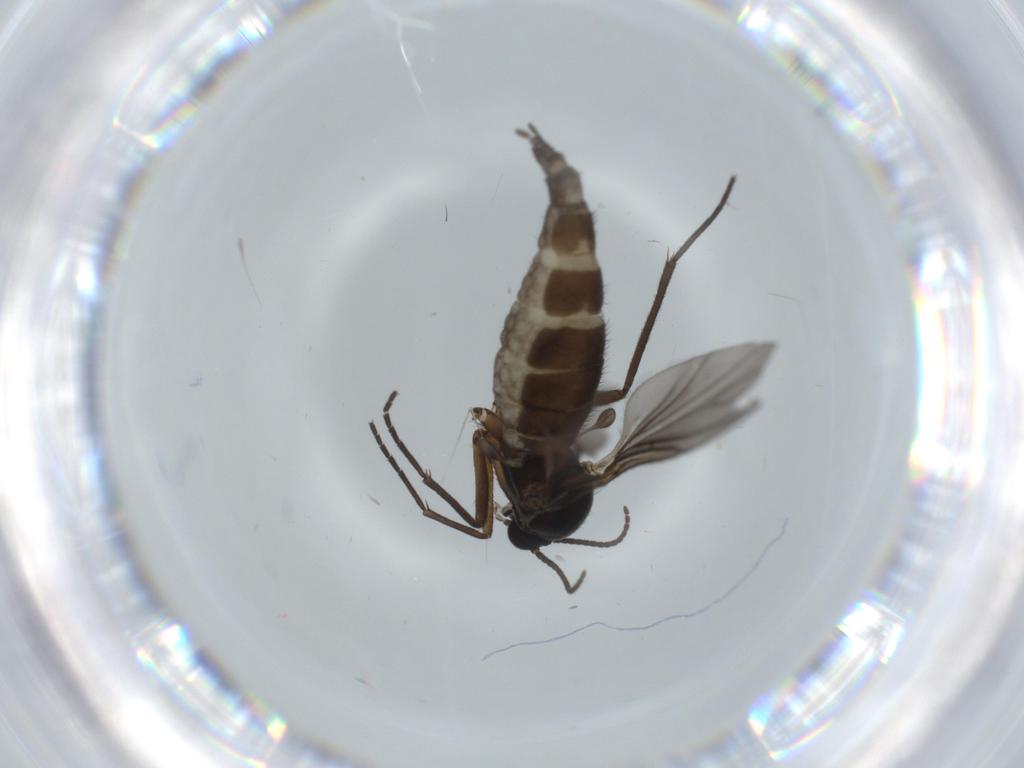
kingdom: Animalia
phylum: Arthropoda
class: Insecta
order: Diptera
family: Sciaridae
